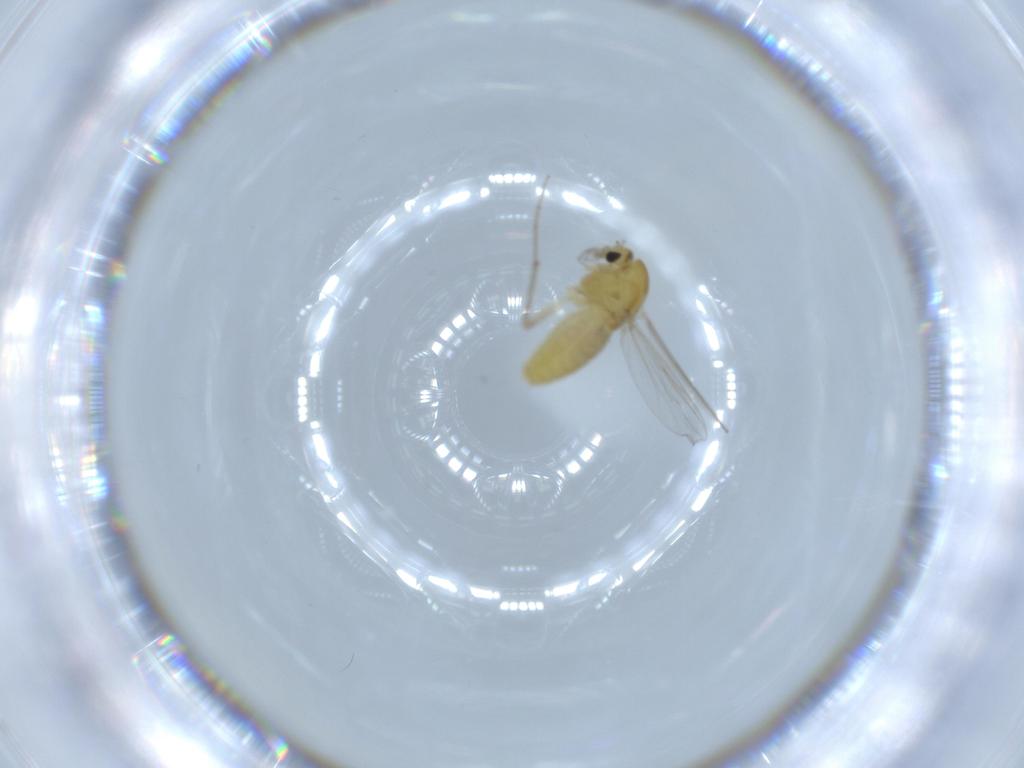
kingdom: Animalia
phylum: Arthropoda
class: Insecta
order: Diptera
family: Chironomidae
